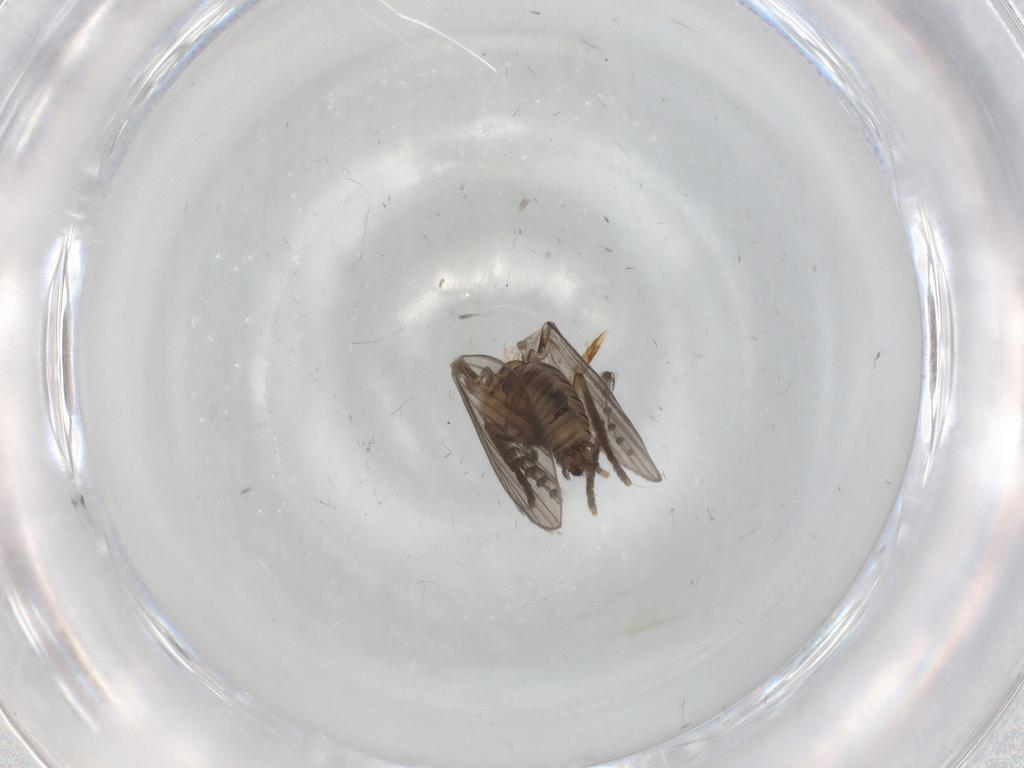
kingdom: Animalia
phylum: Arthropoda
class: Insecta
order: Diptera
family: Psychodidae
